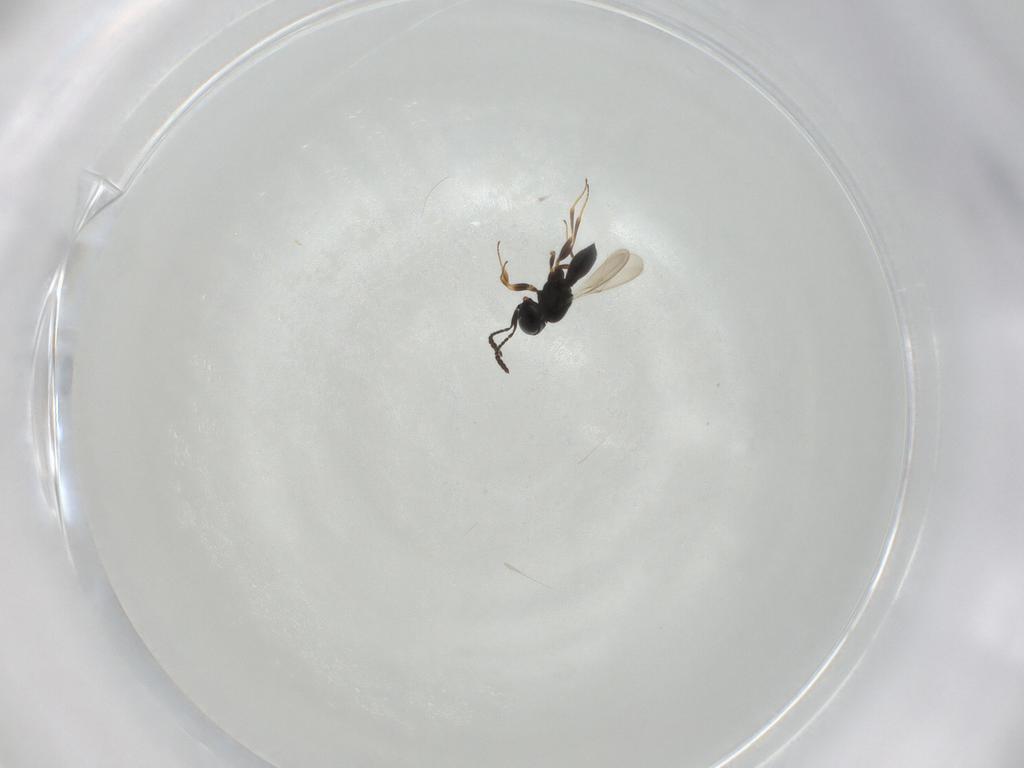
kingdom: Animalia
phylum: Arthropoda
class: Insecta
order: Hymenoptera
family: Scelionidae
